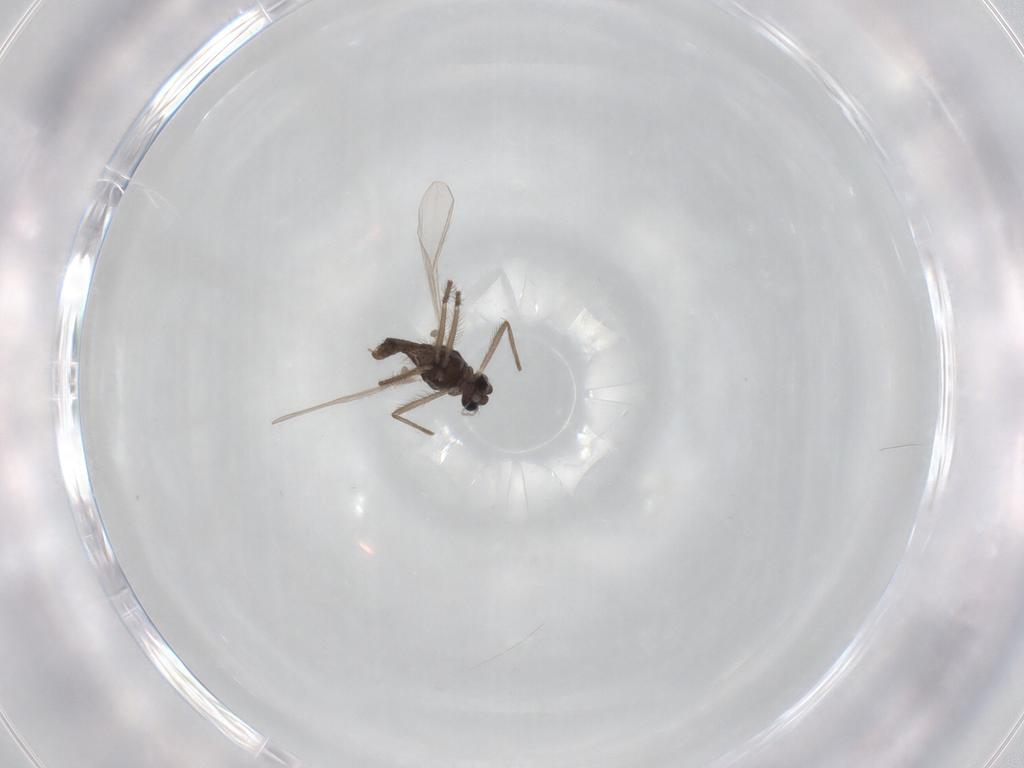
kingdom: Animalia
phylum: Arthropoda
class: Insecta
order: Diptera
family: Chironomidae
